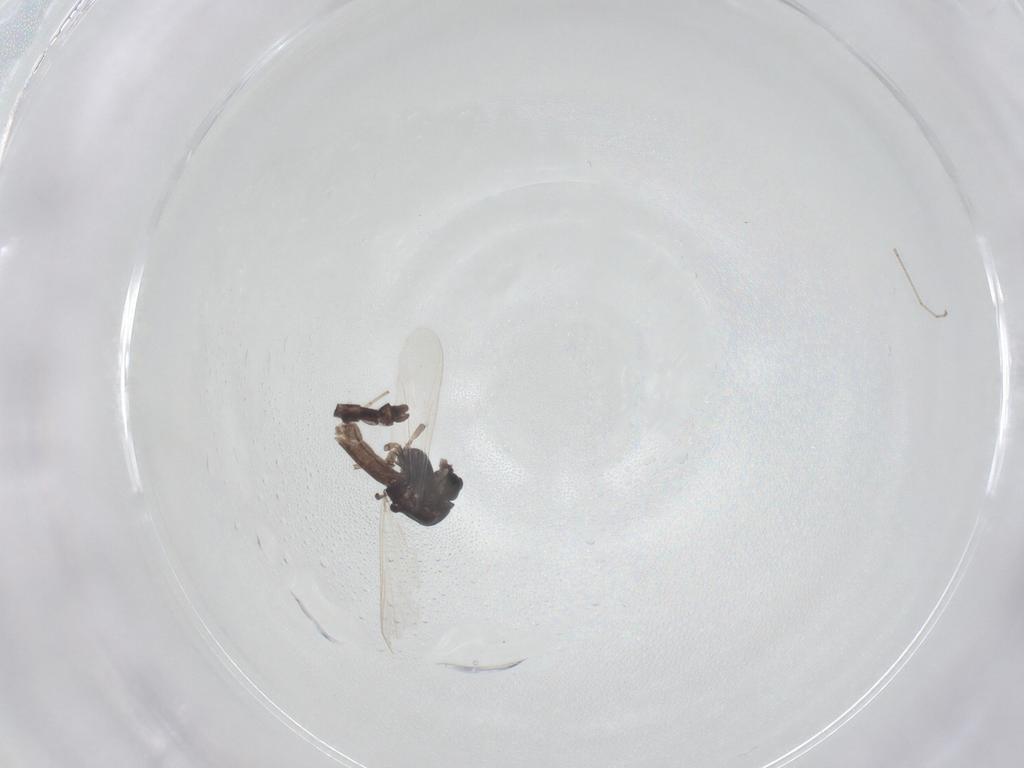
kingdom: Animalia
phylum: Arthropoda
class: Insecta
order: Diptera
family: Chironomidae
